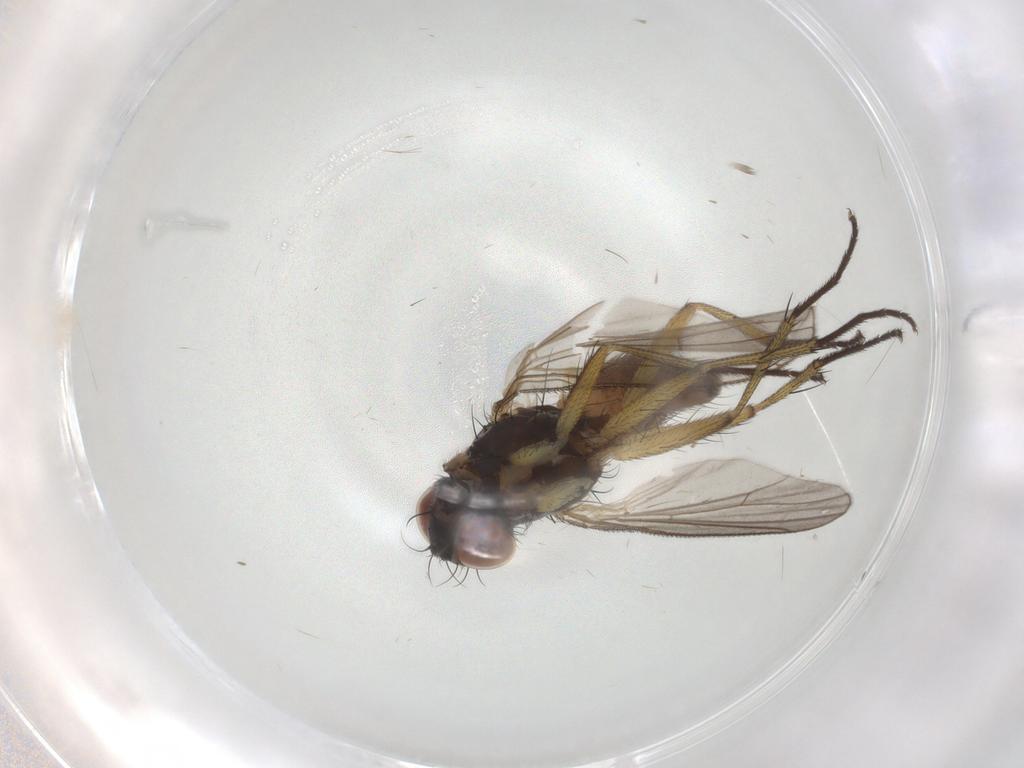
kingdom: Animalia
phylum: Arthropoda
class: Insecta
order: Diptera
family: Muscidae
